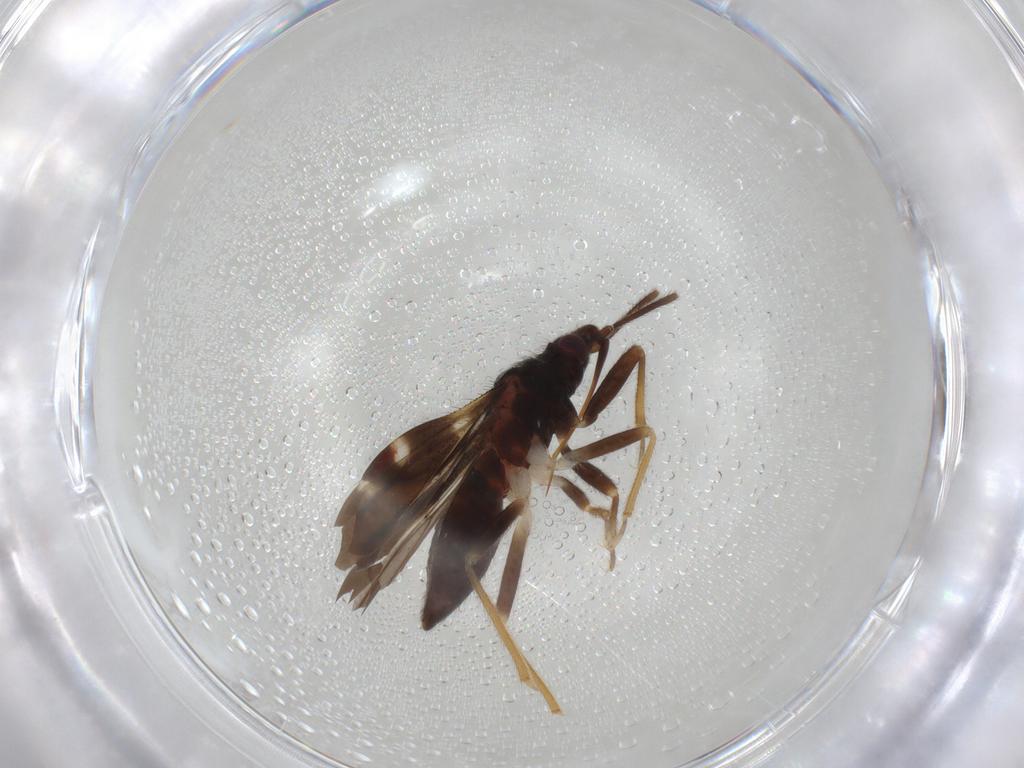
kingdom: Animalia
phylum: Arthropoda
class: Insecta
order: Hemiptera
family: Anthocoridae
